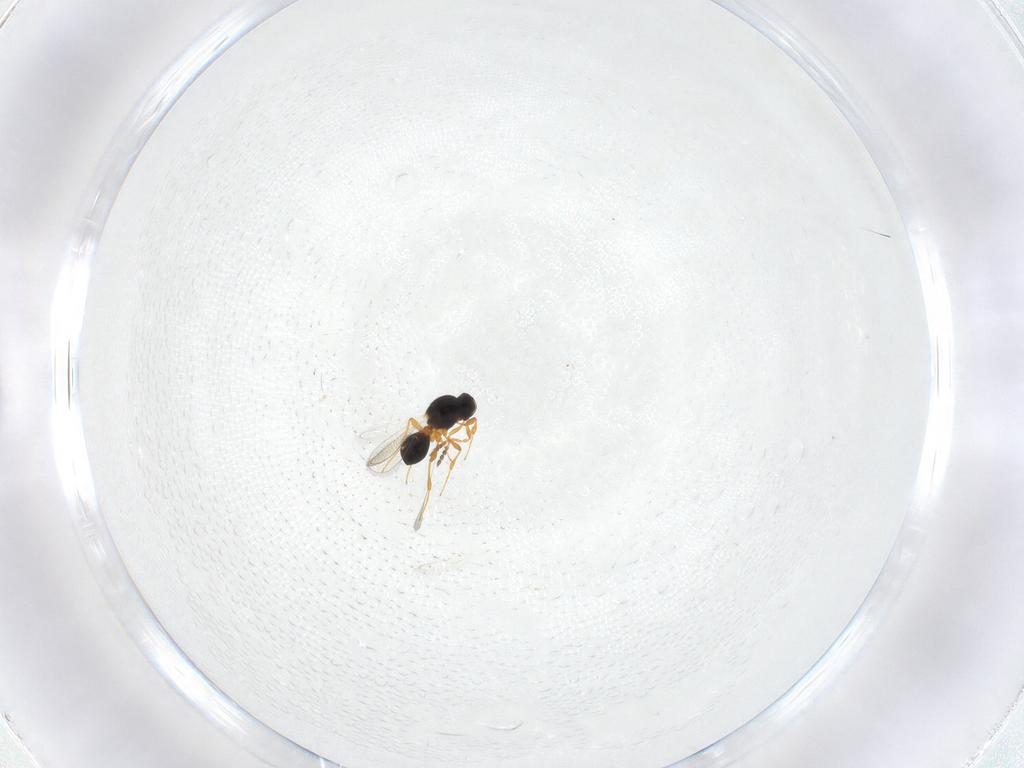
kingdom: Animalia
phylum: Arthropoda
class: Insecta
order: Hymenoptera
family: Platygastridae
